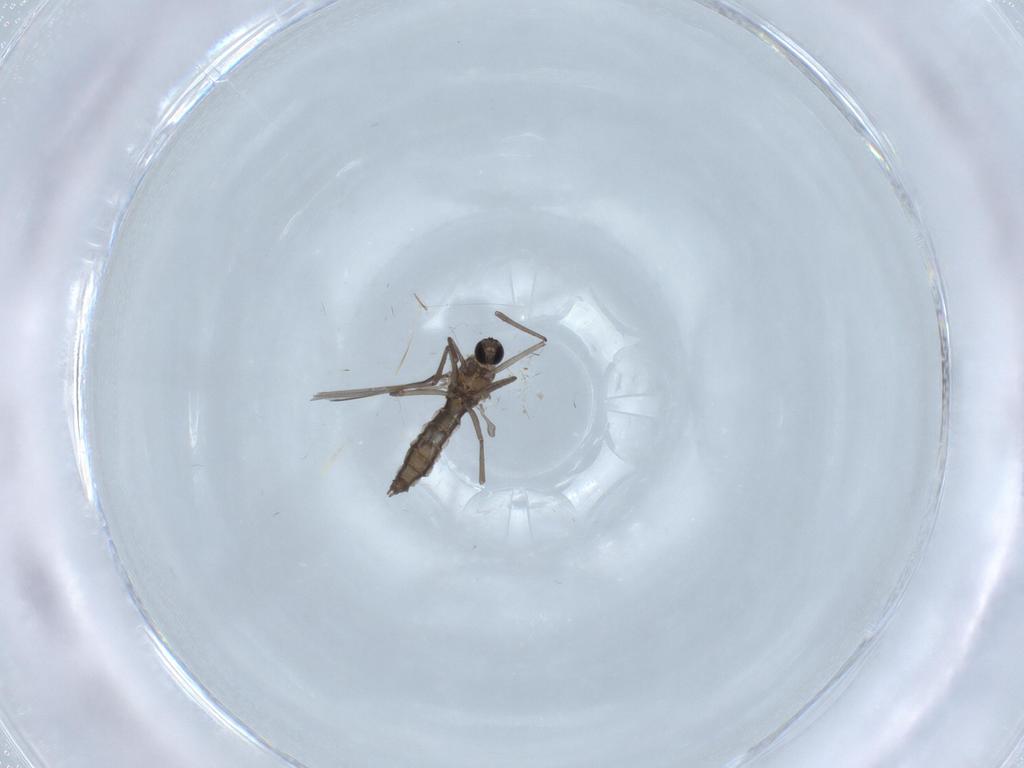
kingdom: Animalia
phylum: Arthropoda
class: Insecta
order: Diptera
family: Cecidomyiidae
